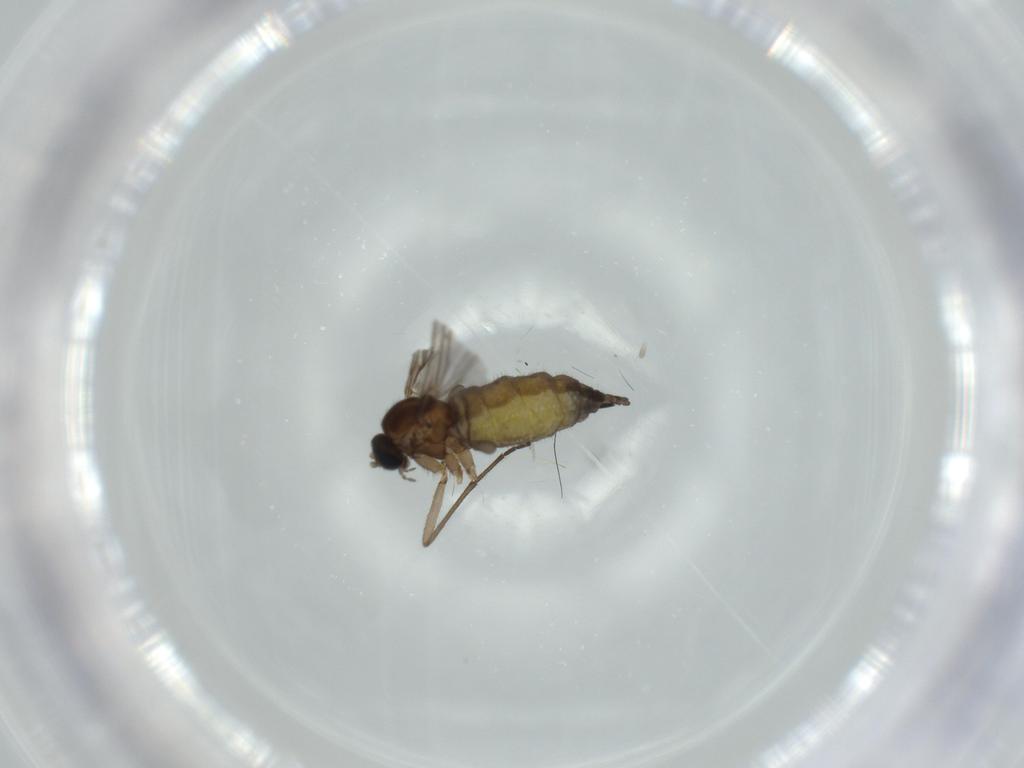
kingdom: Animalia
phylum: Arthropoda
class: Insecta
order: Diptera
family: Sciaridae
